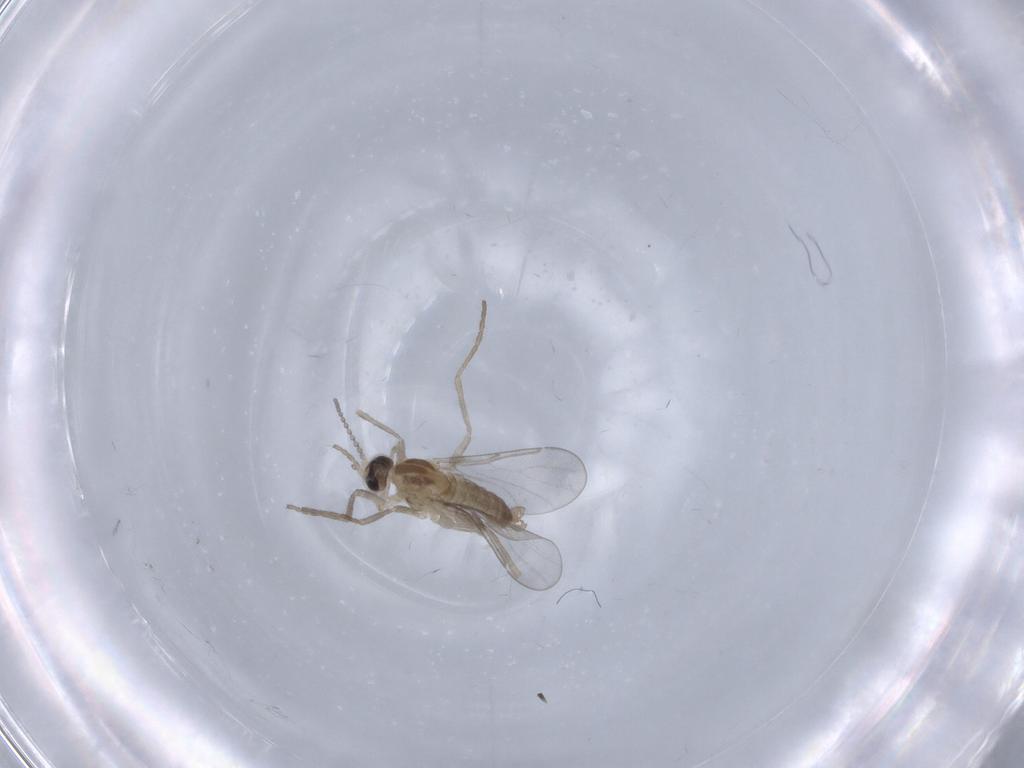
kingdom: Animalia
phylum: Arthropoda
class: Insecta
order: Diptera
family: Cecidomyiidae
